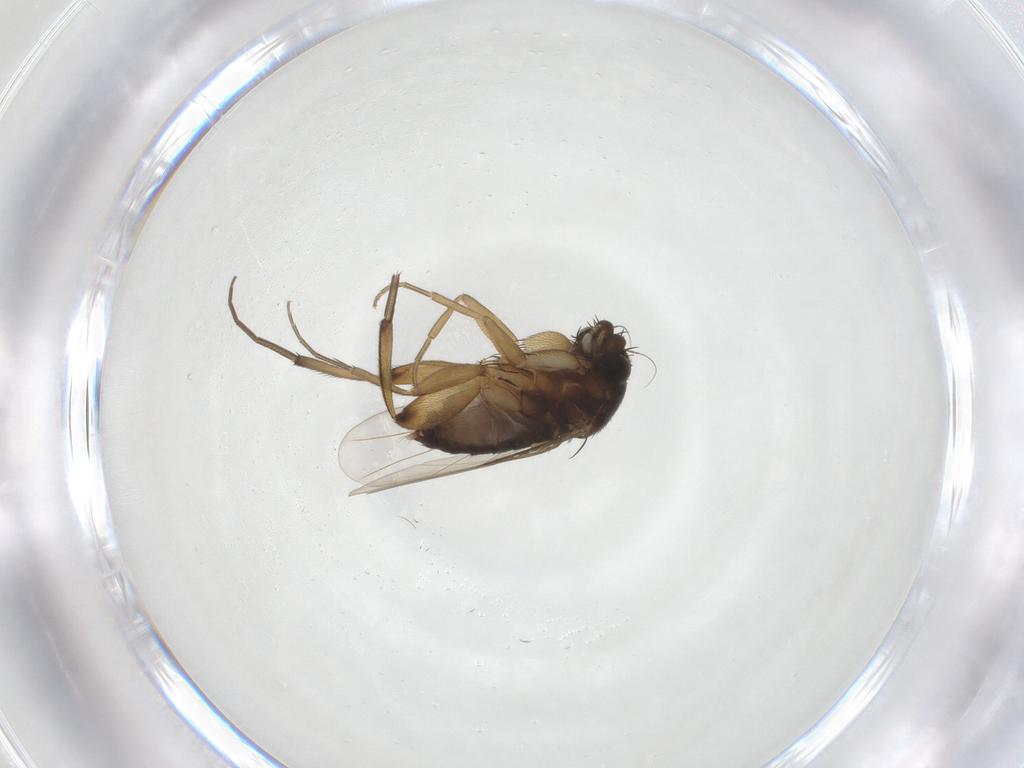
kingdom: Animalia
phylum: Arthropoda
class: Insecta
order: Diptera
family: Phoridae
